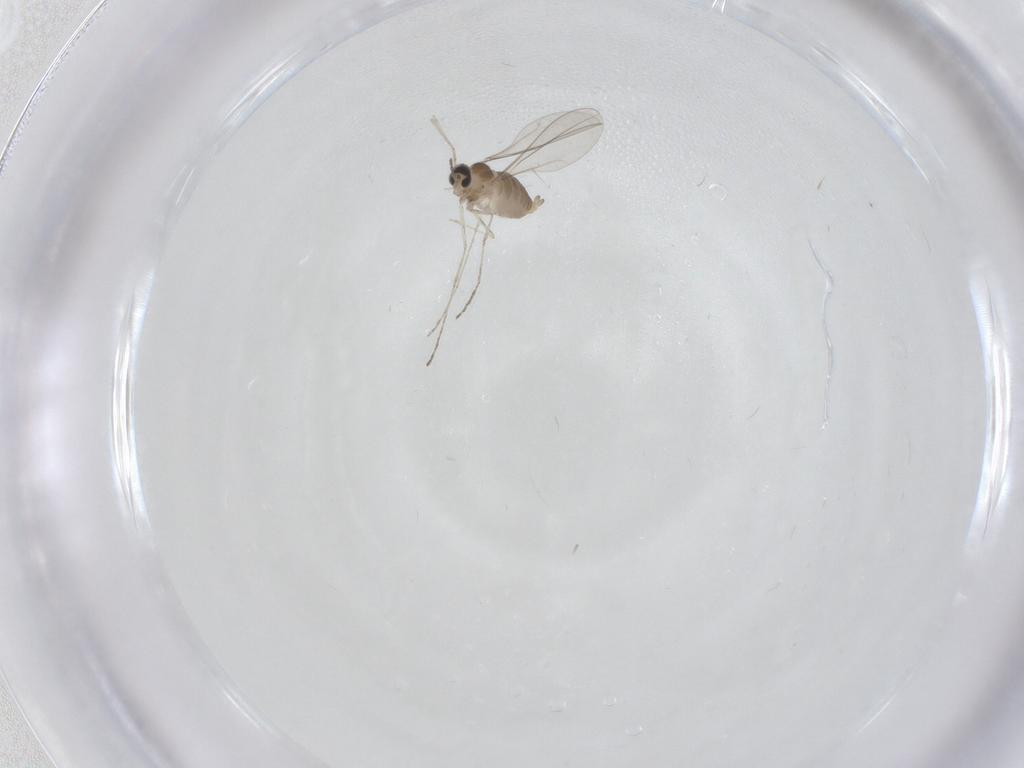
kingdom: Animalia
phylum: Arthropoda
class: Insecta
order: Diptera
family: Cecidomyiidae
